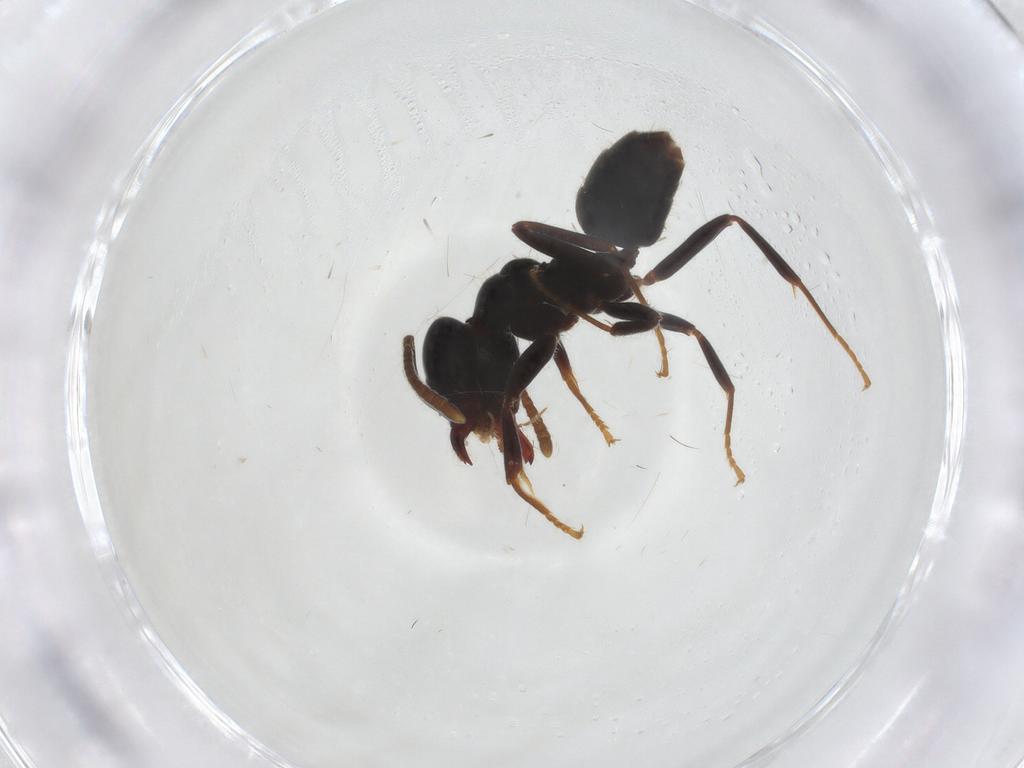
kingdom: Animalia
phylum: Arthropoda
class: Insecta
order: Hymenoptera
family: Formicidae
